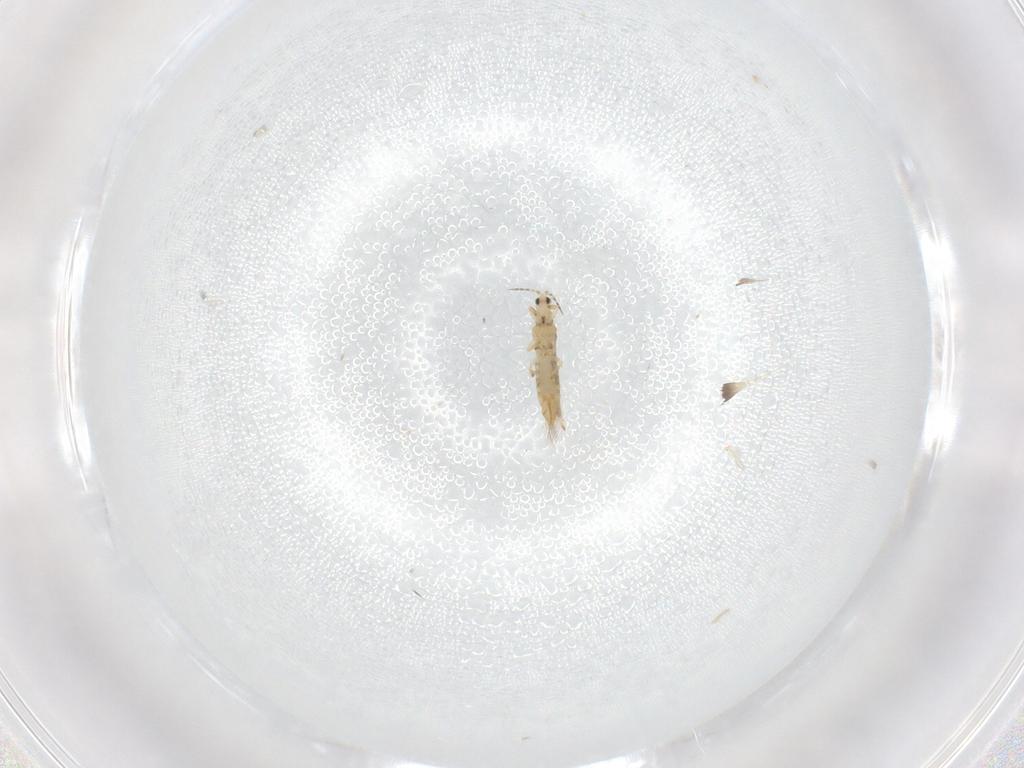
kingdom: Animalia
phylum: Arthropoda
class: Insecta
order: Thysanoptera
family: Thripidae
